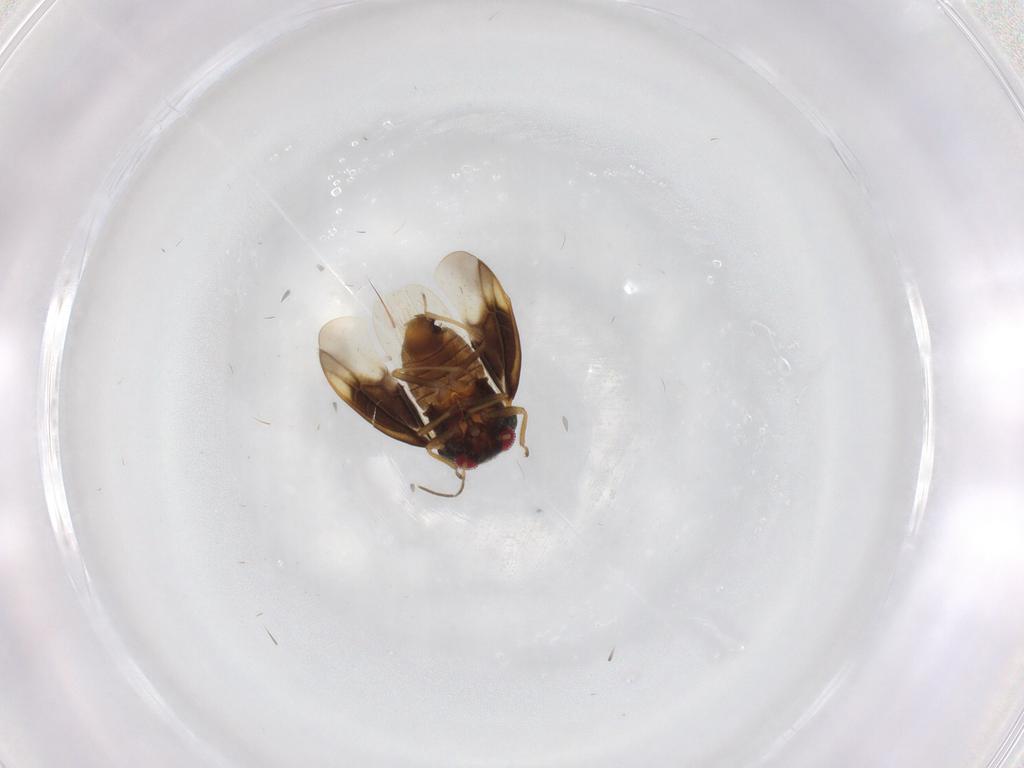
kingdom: Animalia
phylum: Arthropoda
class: Insecta
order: Hemiptera
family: Schizopteridae
